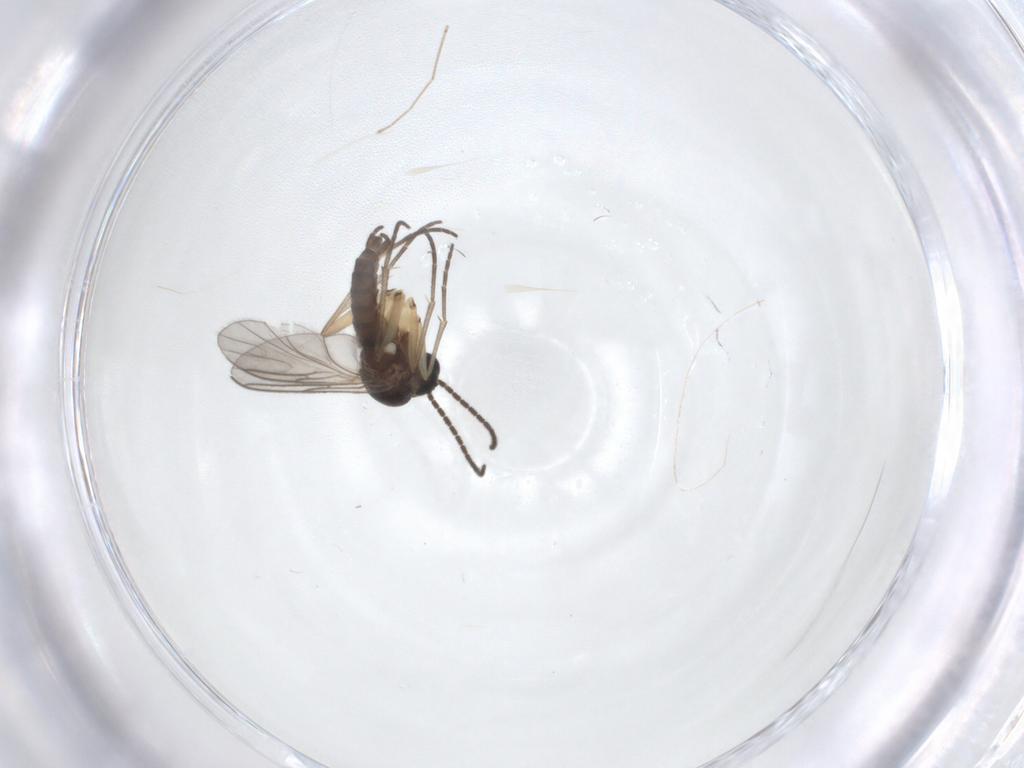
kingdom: Animalia
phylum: Arthropoda
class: Insecta
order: Diptera
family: Sciaridae
